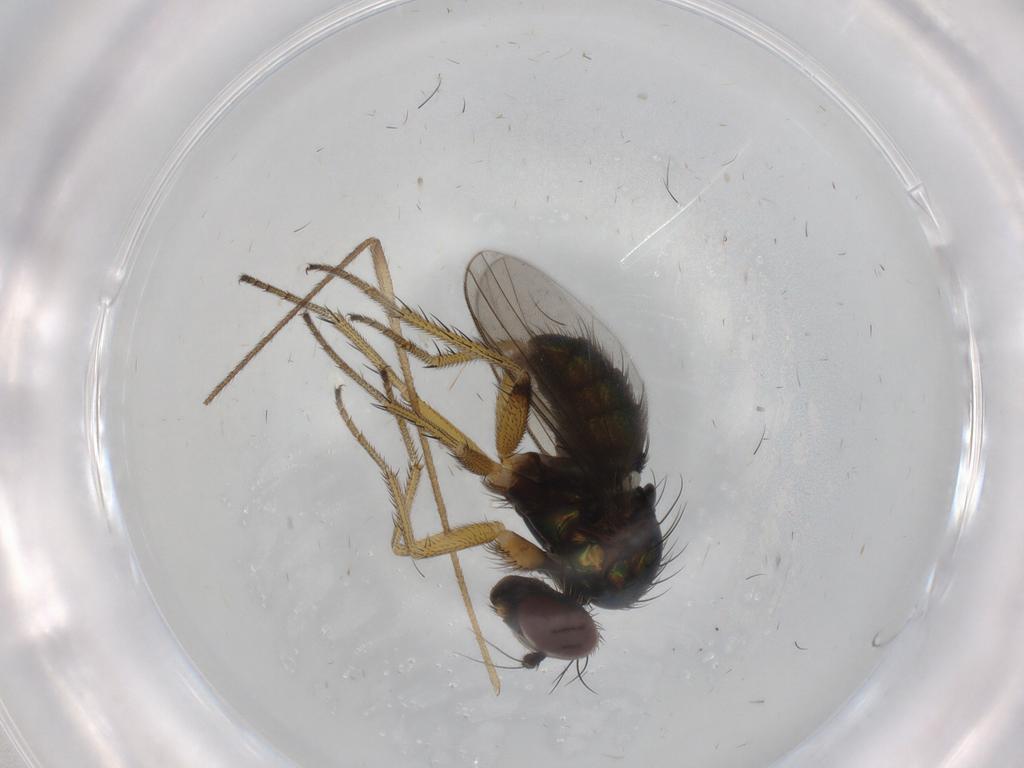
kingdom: Animalia
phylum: Arthropoda
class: Insecta
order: Diptera
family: Dolichopodidae
